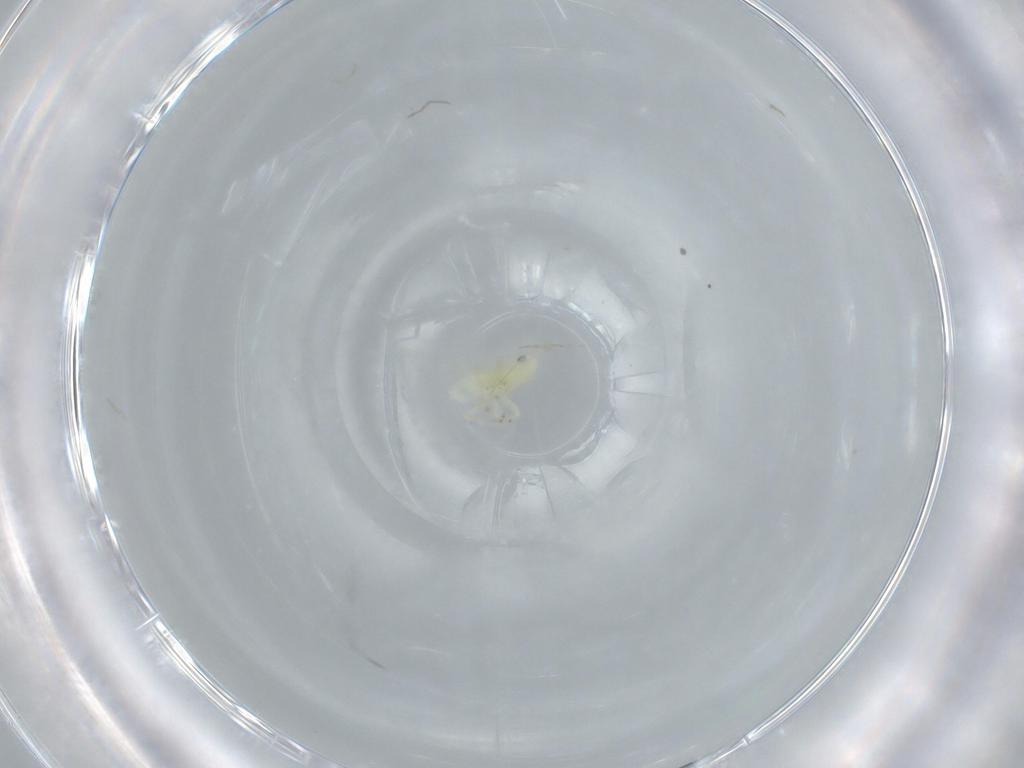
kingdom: Animalia
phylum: Arthropoda
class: Insecta
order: Hemiptera
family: Cicadellidae
